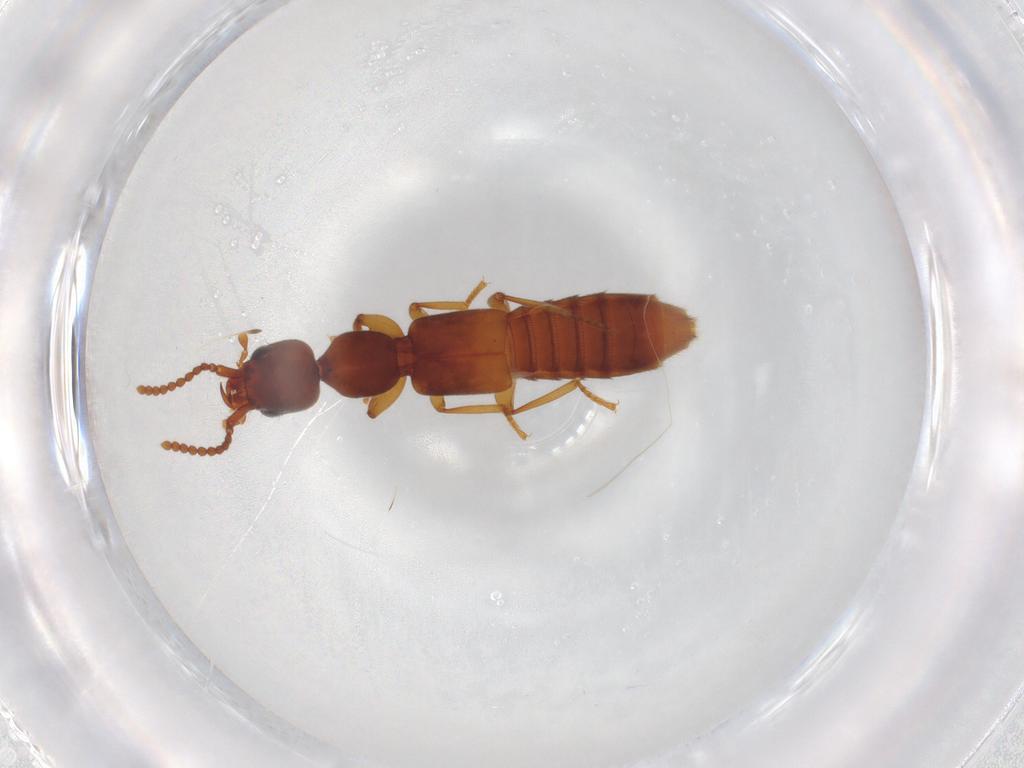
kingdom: Animalia
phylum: Arthropoda
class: Insecta
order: Coleoptera
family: Staphylinidae
